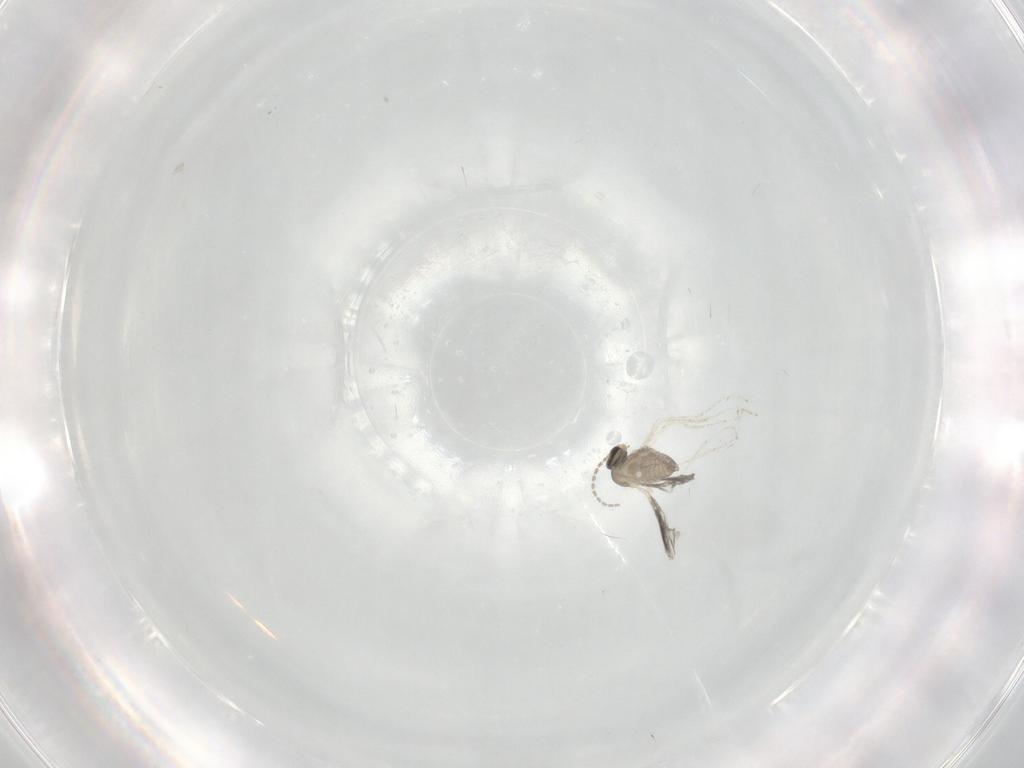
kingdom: Animalia
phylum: Arthropoda
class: Insecta
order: Diptera
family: Cecidomyiidae
